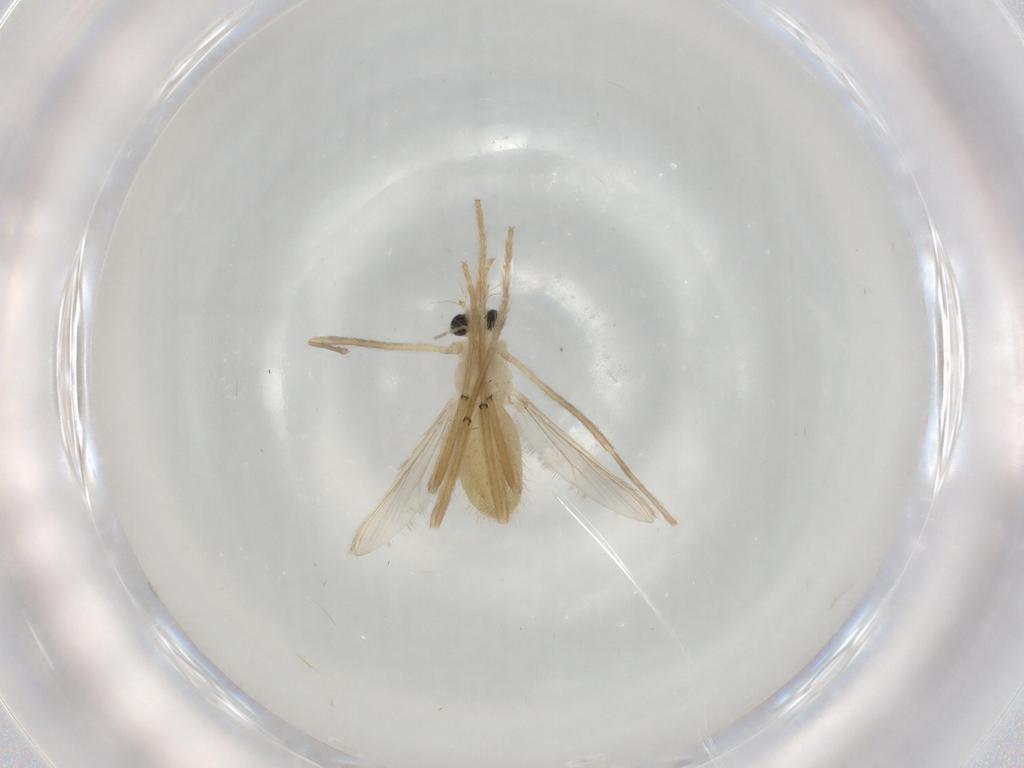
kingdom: Animalia
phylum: Arthropoda
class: Insecta
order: Diptera
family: Chironomidae
